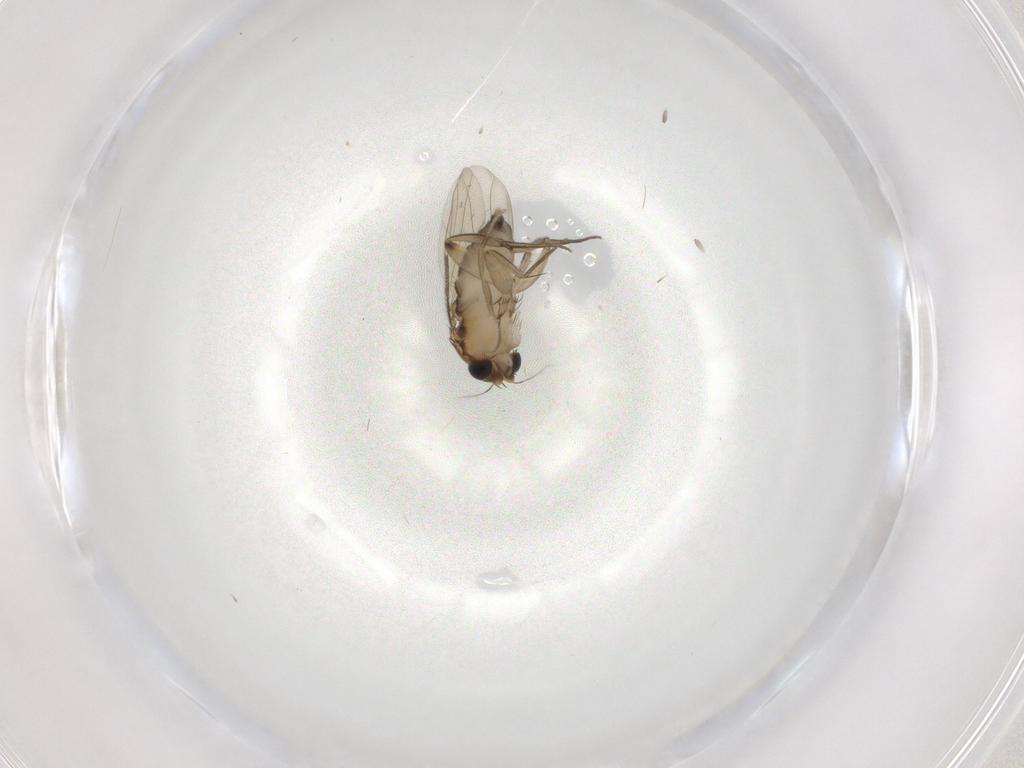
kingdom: Animalia
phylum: Arthropoda
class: Insecta
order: Diptera
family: Phoridae
